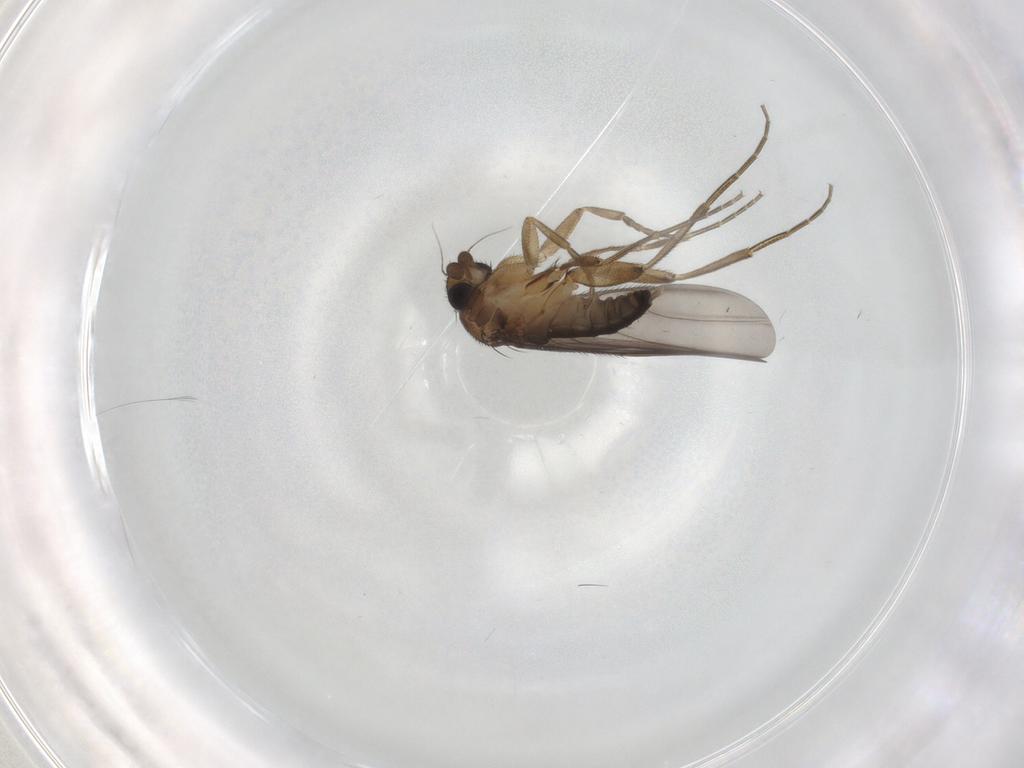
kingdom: Animalia
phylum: Arthropoda
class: Insecta
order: Diptera
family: Phoridae
